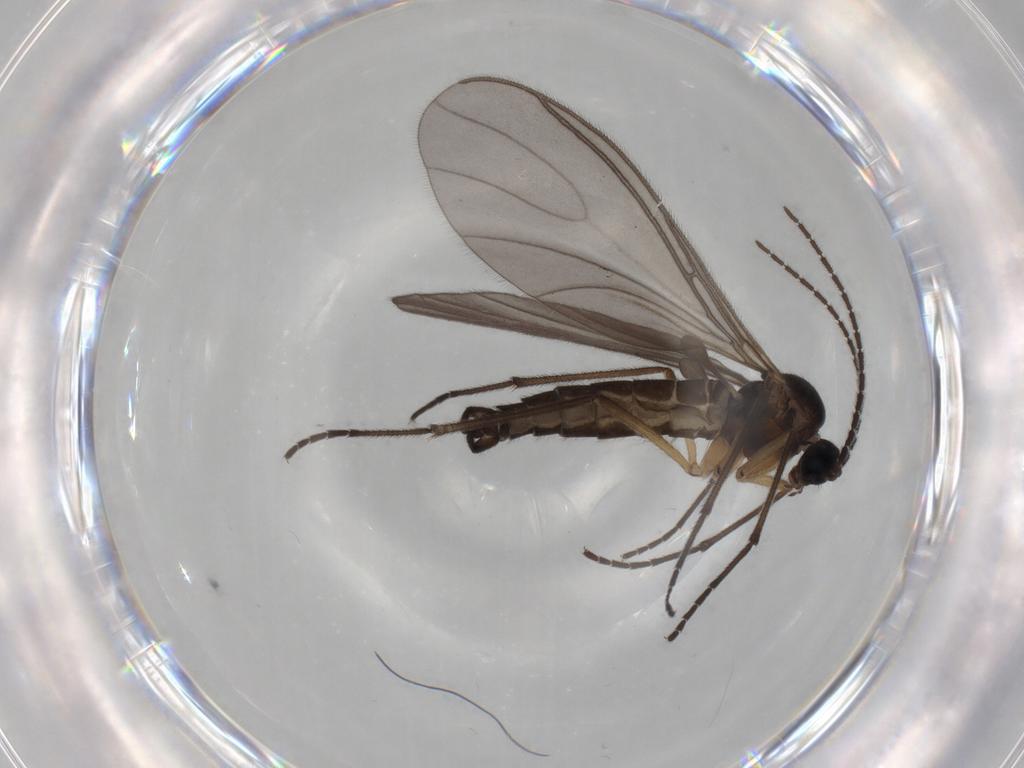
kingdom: Animalia
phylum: Arthropoda
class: Insecta
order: Diptera
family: Sciaridae
